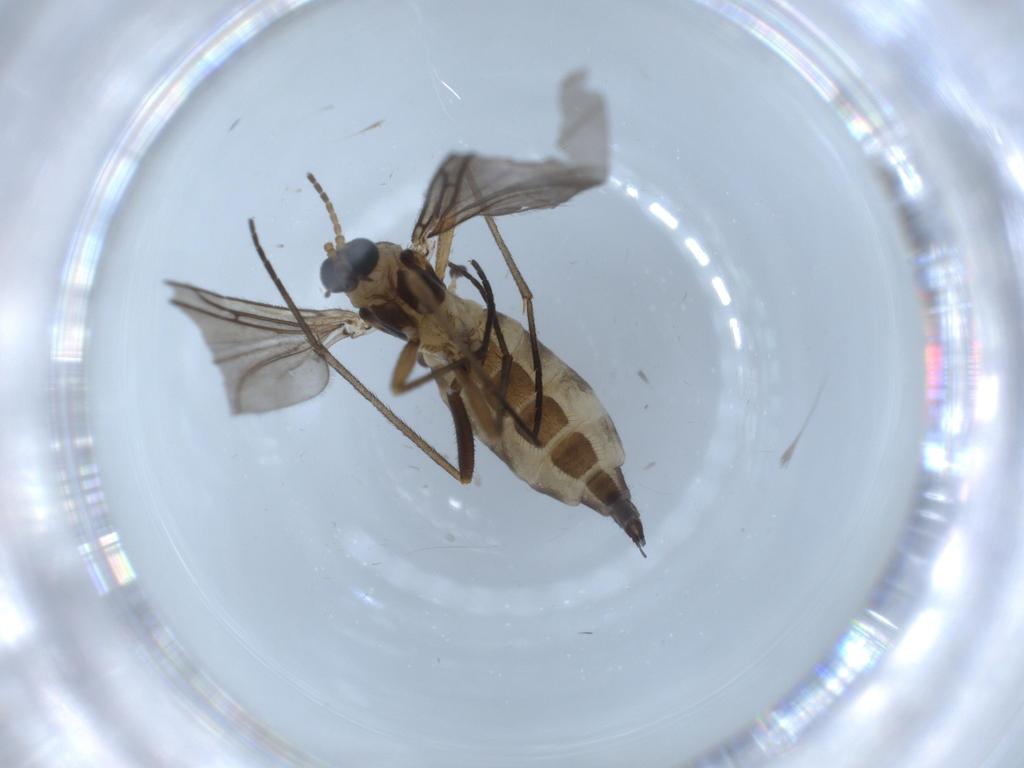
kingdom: Animalia
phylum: Arthropoda
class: Insecta
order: Diptera
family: Sciaridae
